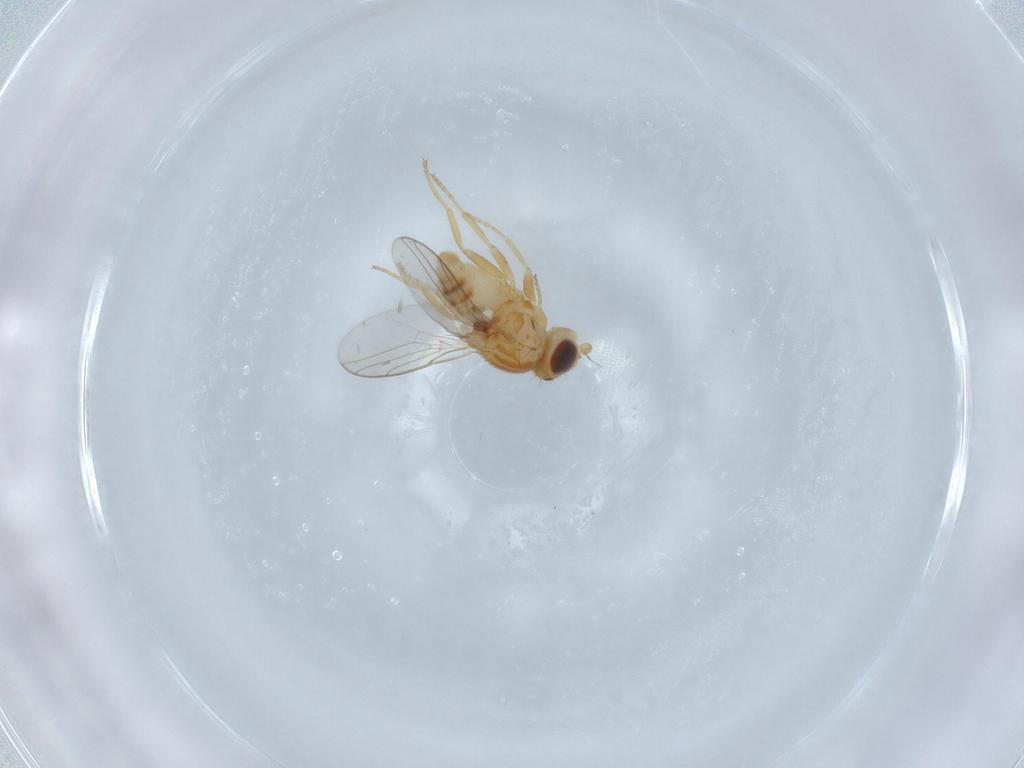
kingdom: Animalia
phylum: Arthropoda
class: Insecta
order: Diptera
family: Chloropidae
